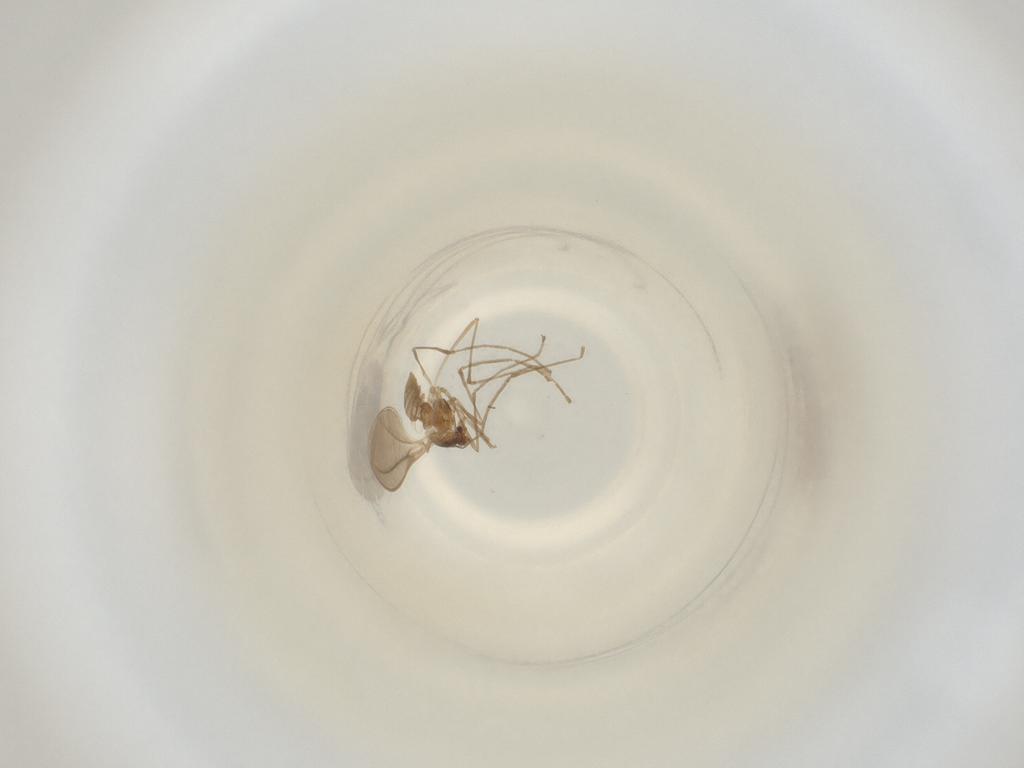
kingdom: Animalia
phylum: Arthropoda
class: Insecta
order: Diptera
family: Cecidomyiidae
